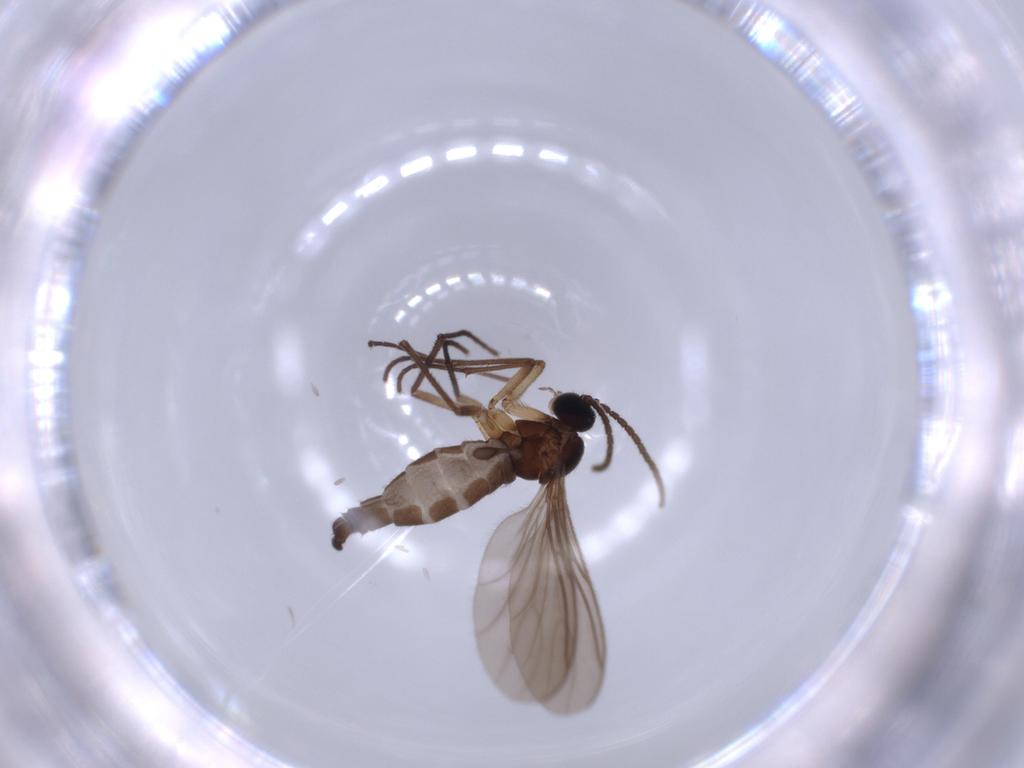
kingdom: Animalia
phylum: Arthropoda
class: Insecta
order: Diptera
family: Sciaridae
